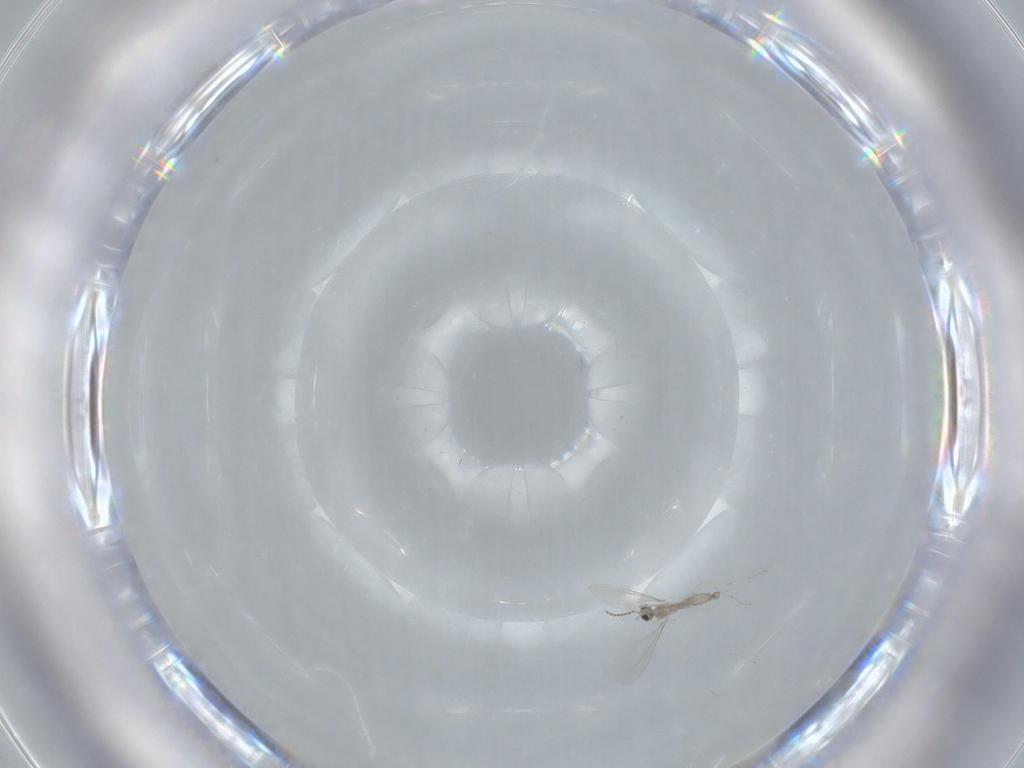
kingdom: Animalia
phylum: Arthropoda
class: Insecta
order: Diptera
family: Cecidomyiidae
